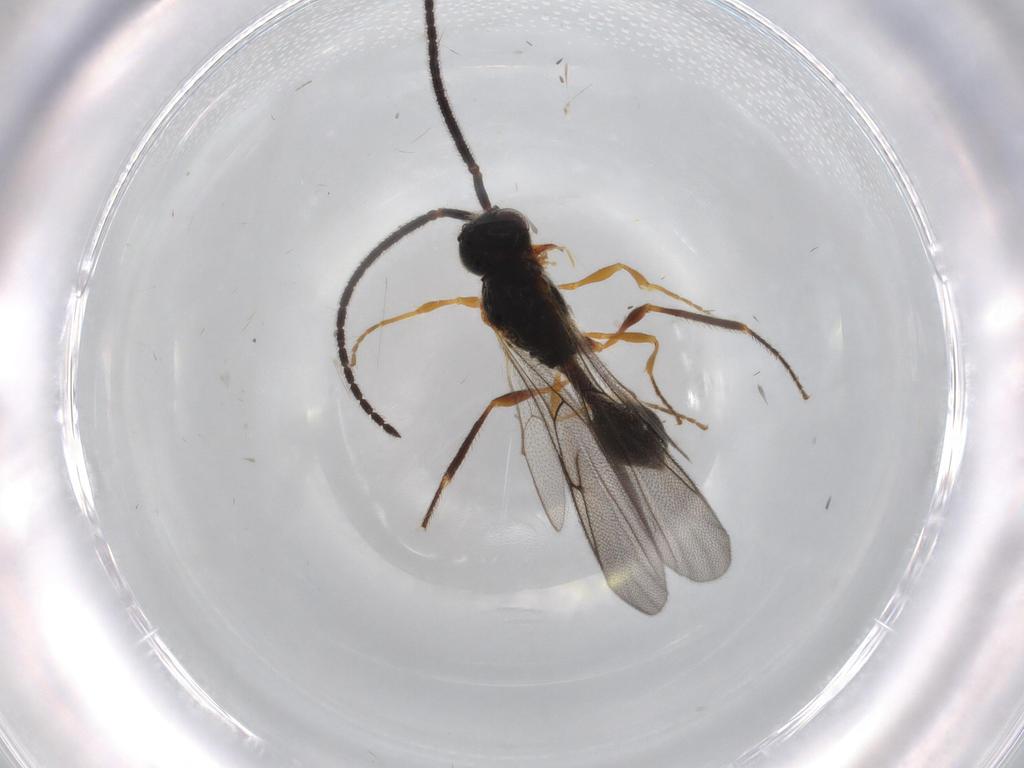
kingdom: Animalia
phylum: Arthropoda
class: Insecta
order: Hymenoptera
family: Diapriidae
